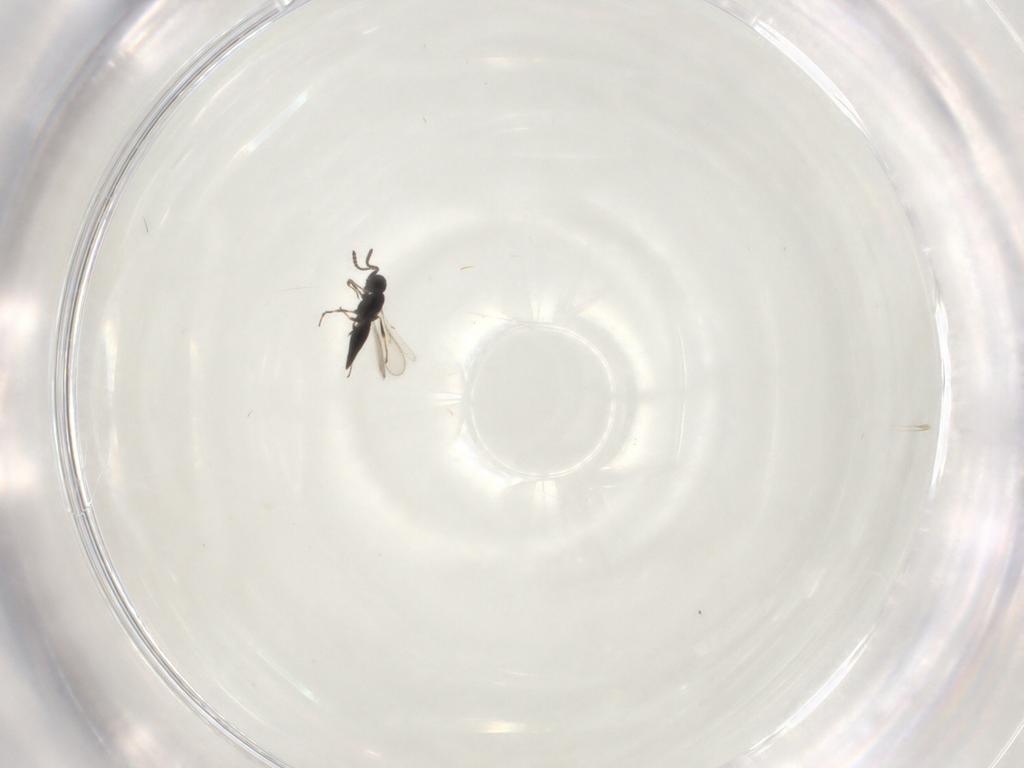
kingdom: Animalia
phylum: Arthropoda
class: Insecta
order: Hymenoptera
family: Scelionidae
